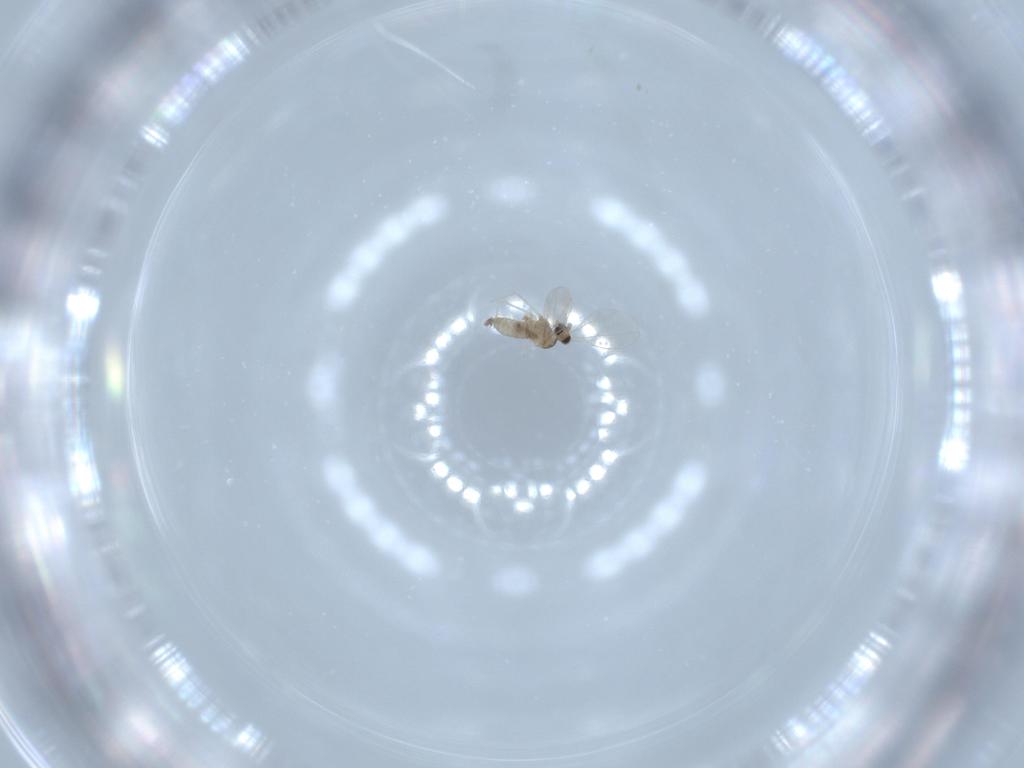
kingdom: Animalia
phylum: Arthropoda
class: Insecta
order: Diptera
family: Cecidomyiidae
